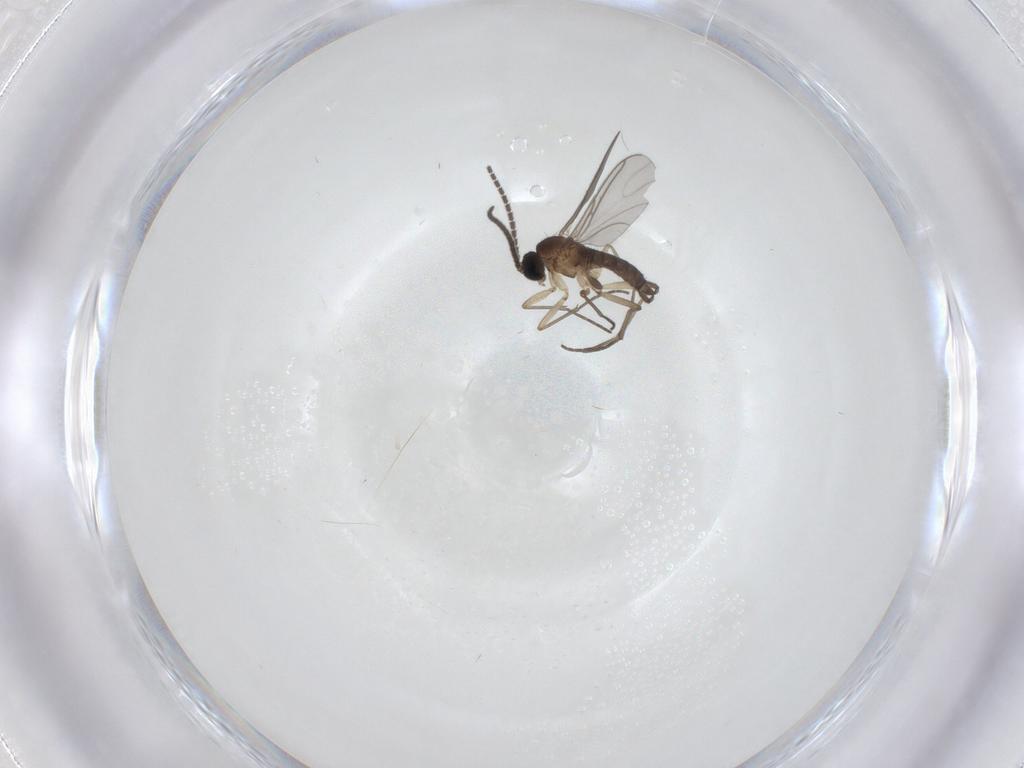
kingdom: Animalia
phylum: Arthropoda
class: Insecta
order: Diptera
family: Sciaridae
